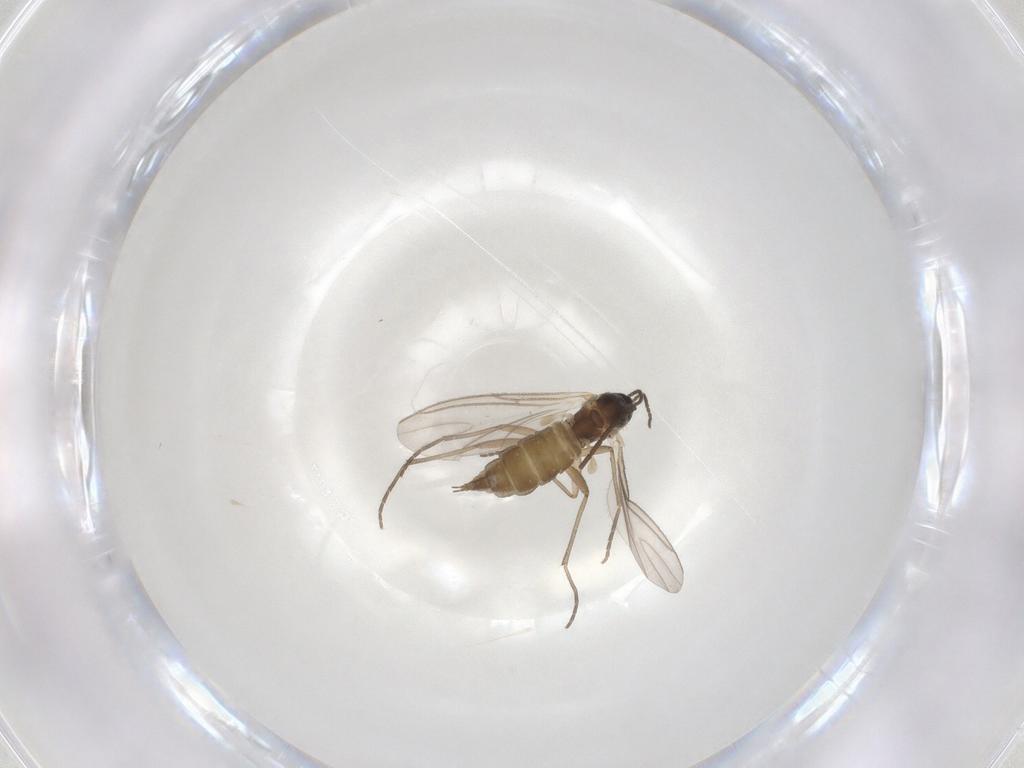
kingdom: Animalia
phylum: Arthropoda
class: Insecta
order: Diptera
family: Cecidomyiidae
